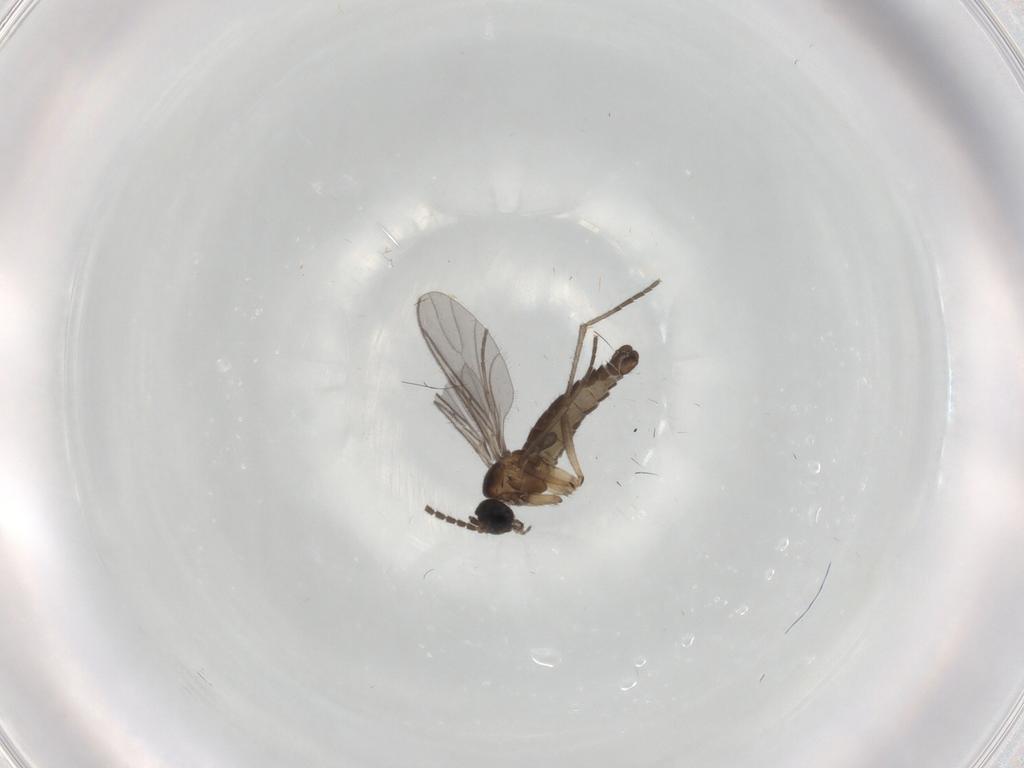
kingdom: Animalia
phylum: Arthropoda
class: Insecta
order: Diptera
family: Sciaridae
